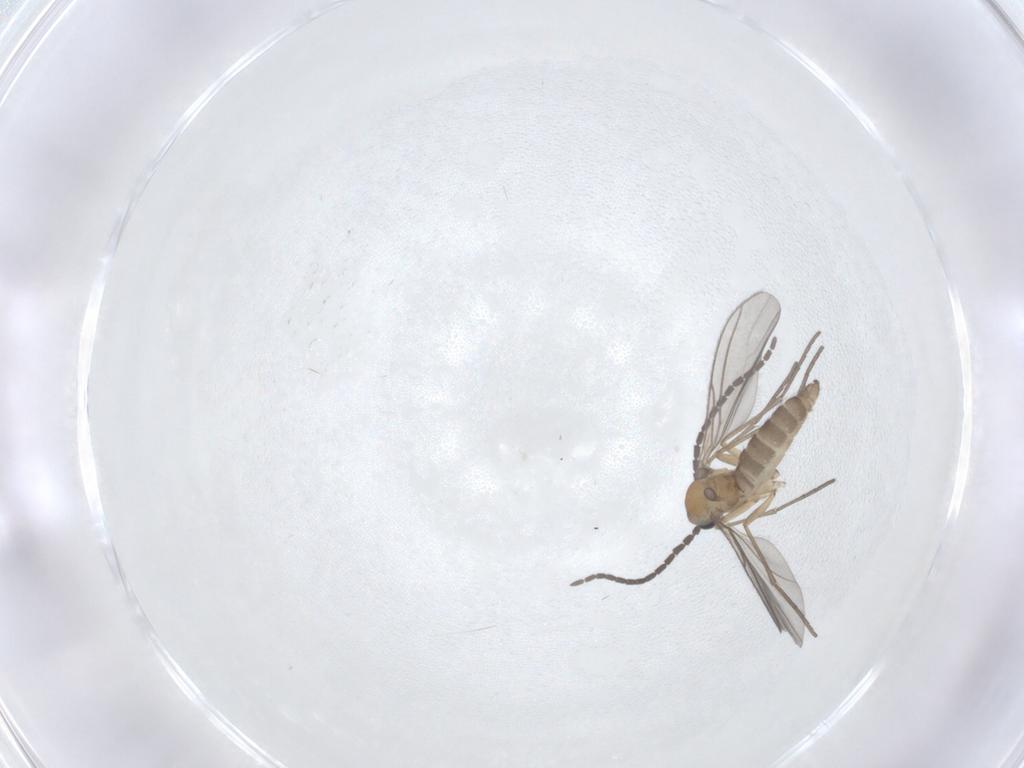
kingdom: Animalia
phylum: Arthropoda
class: Insecta
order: Diptera
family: Sciaridae
